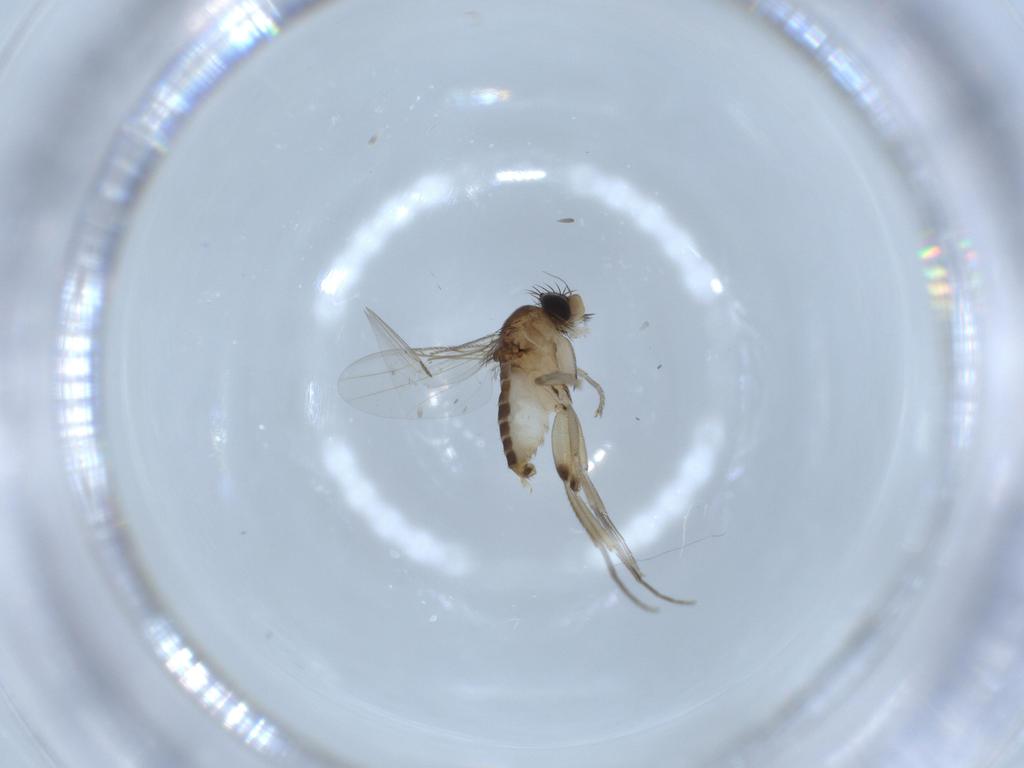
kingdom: Animalia
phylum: Arthropoda
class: Insecta
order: Diptera
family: Phoridae
